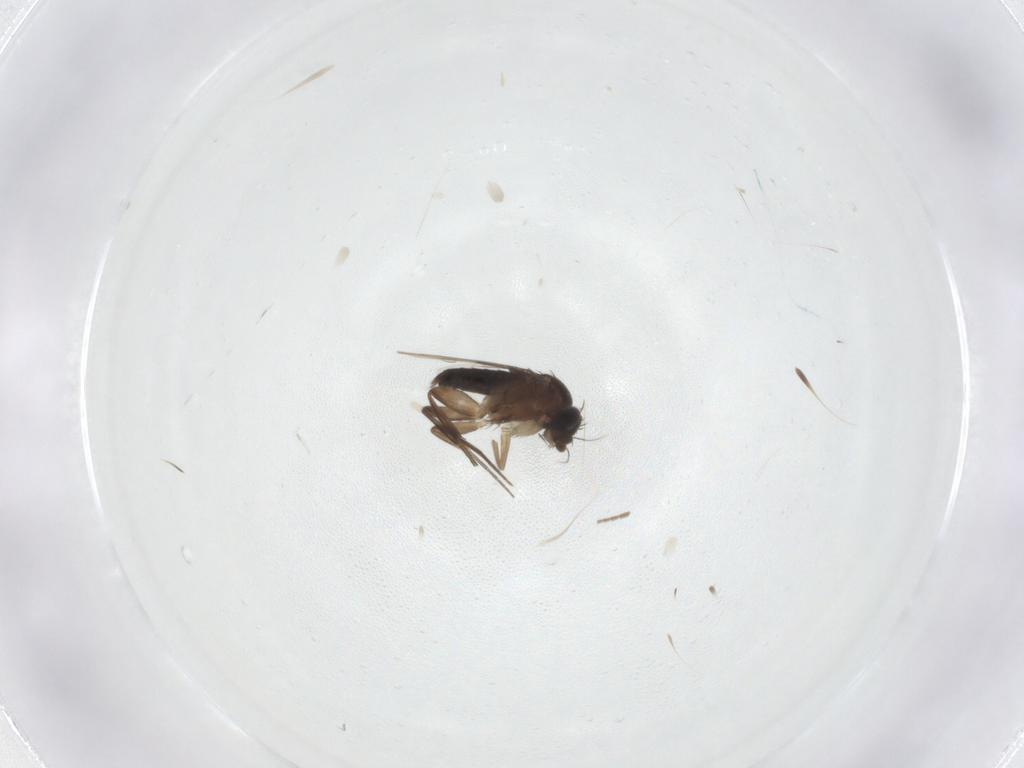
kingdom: Animalia
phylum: Arthropoda
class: Insecta
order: Diptera
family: Phoridae
